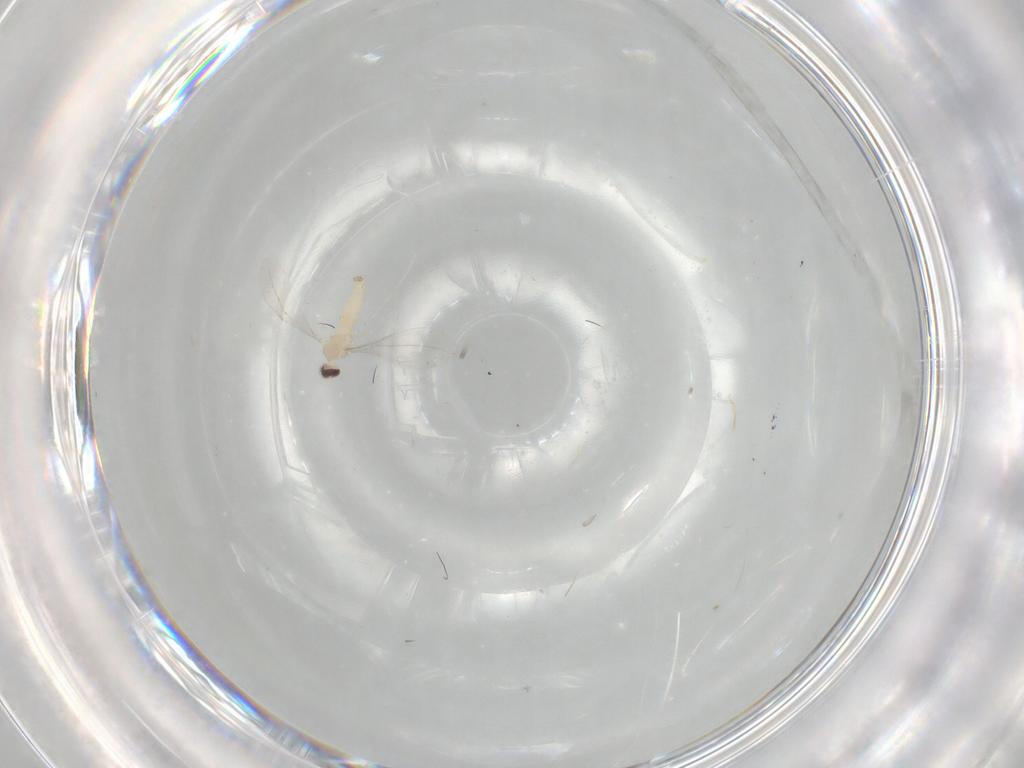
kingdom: Animalia
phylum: Arthropoda
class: Insecta
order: Diptera
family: Cecidomyiidae
